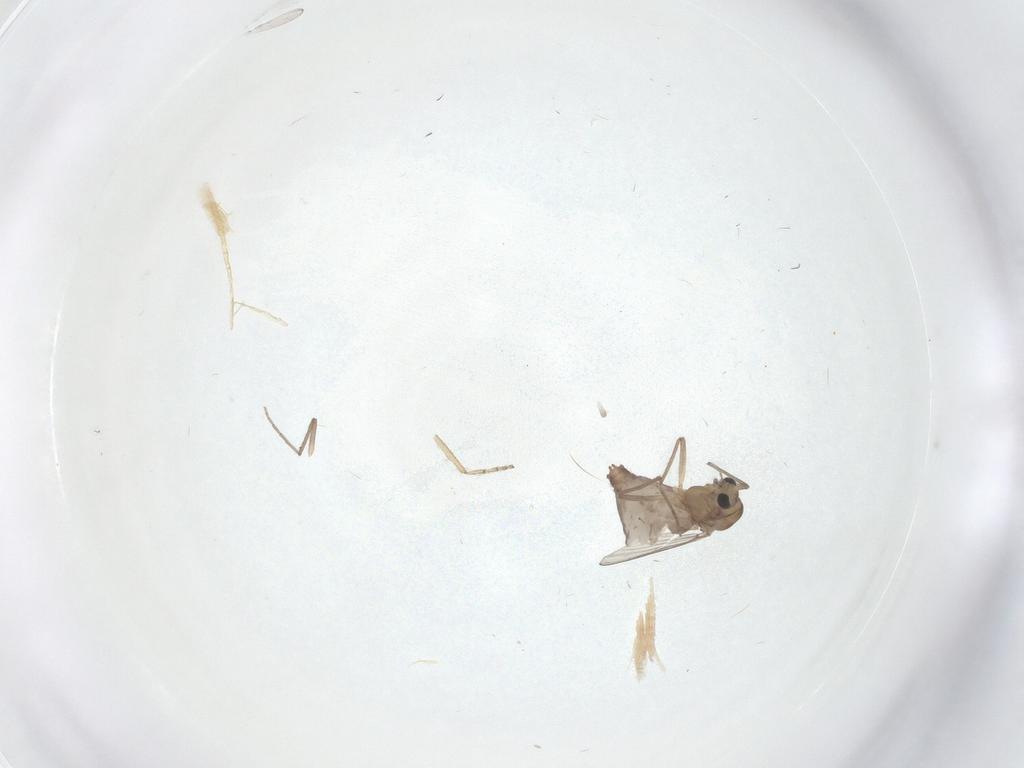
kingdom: Animalia
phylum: Arthropoda
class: Insecta
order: Diptera
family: Chironomidae
